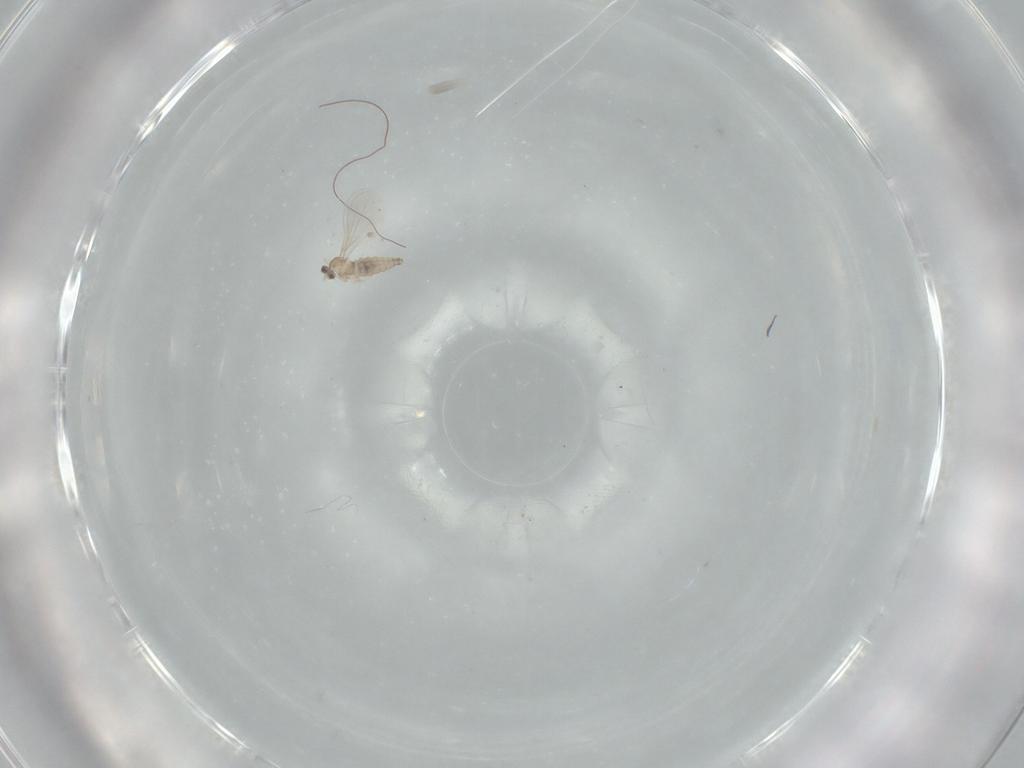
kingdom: Animalia
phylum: Arthropoda
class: Insecta
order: Diptera
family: Cecidomyiidae
